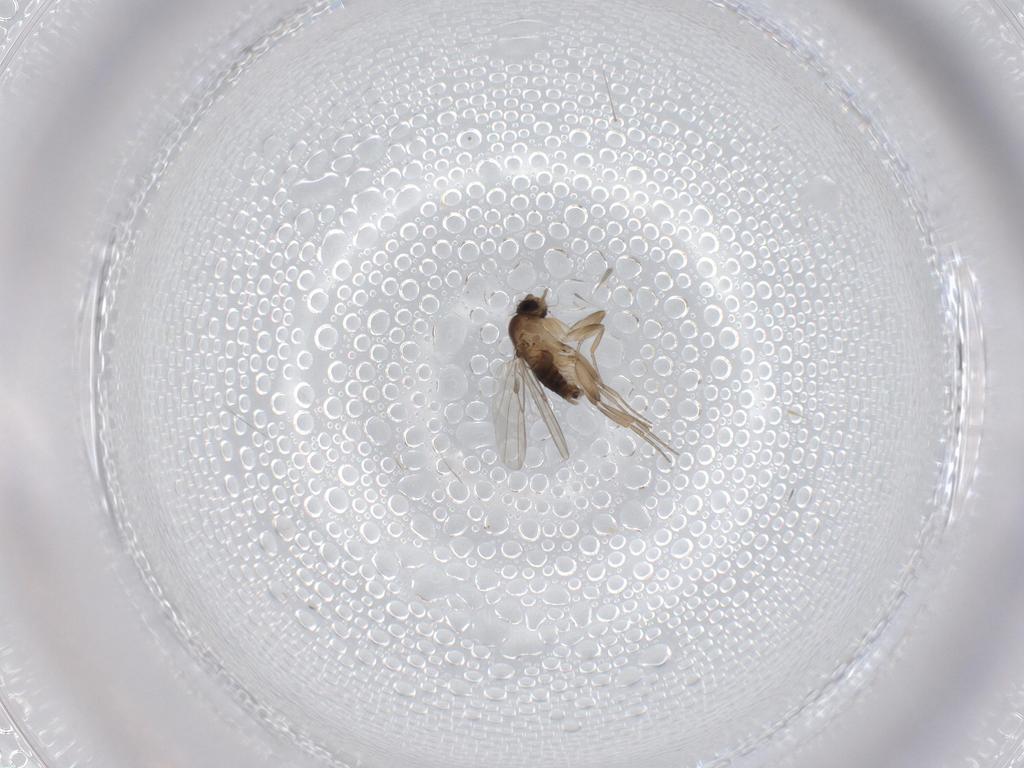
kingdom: Animalia
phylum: Arthropoda
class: Insecta
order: Diptera
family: Phoridae
